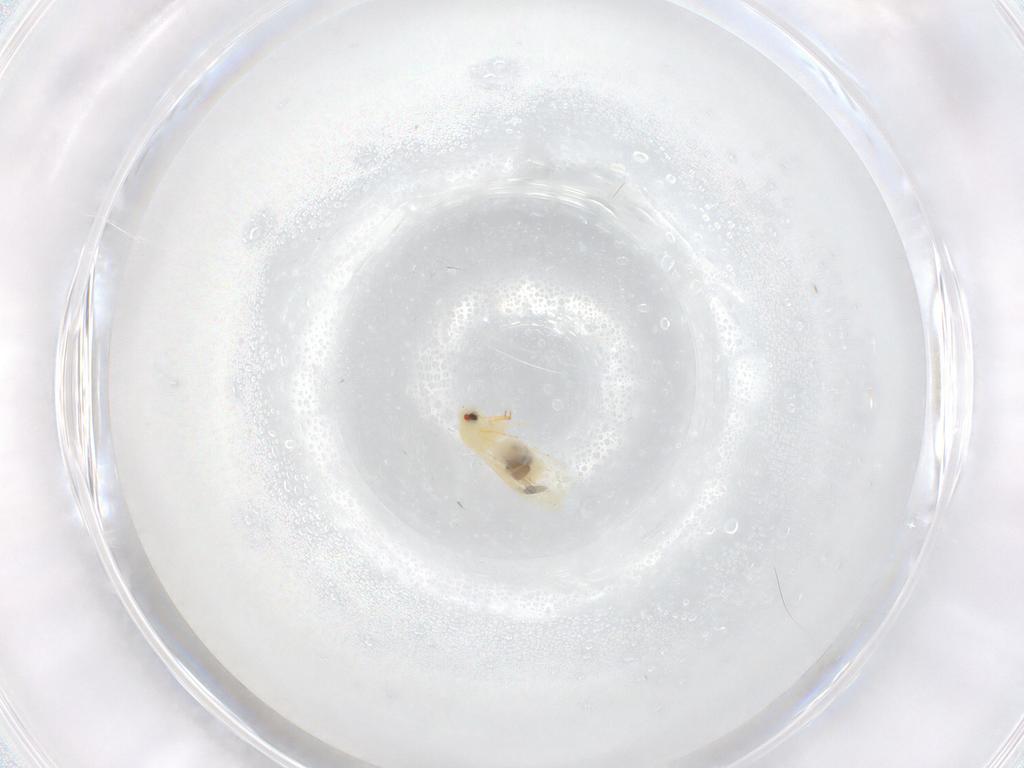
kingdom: Animalia
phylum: Arthropoda
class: Insecta
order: Hemiptera
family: Aleyrodidae
